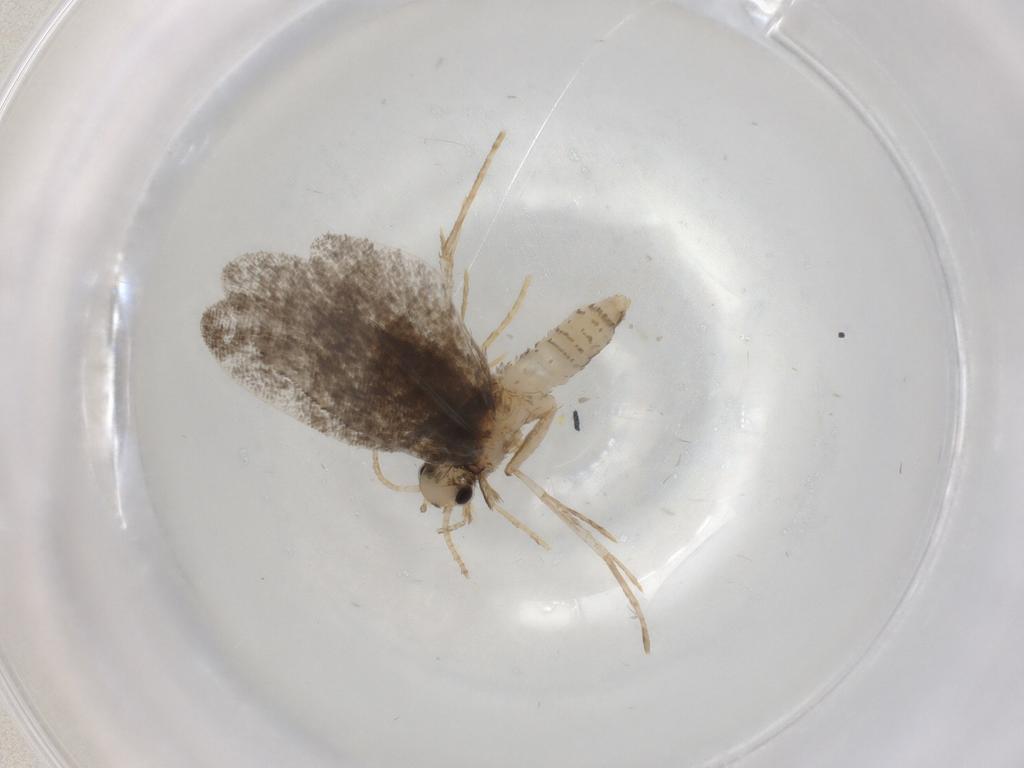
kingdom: Animalia
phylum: Arthropoda
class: Insecta
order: Lepidoptera
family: Psychidae
